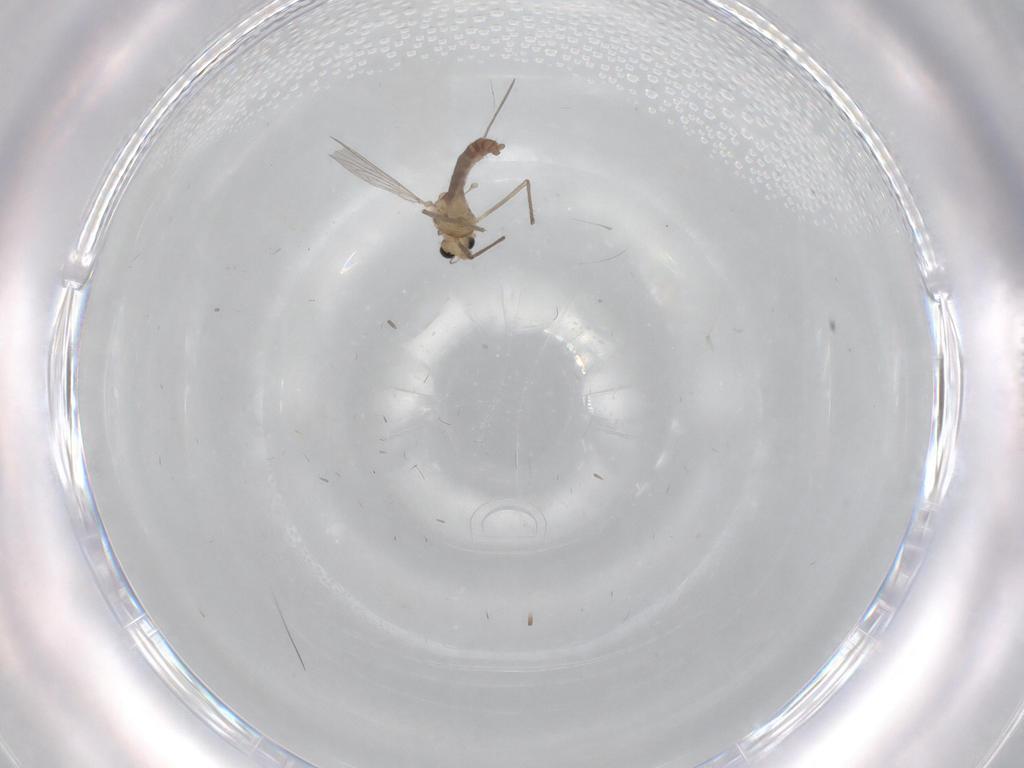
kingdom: Animalia
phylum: Arthropoda
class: Insecta
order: Diptera
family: Chironomidae
